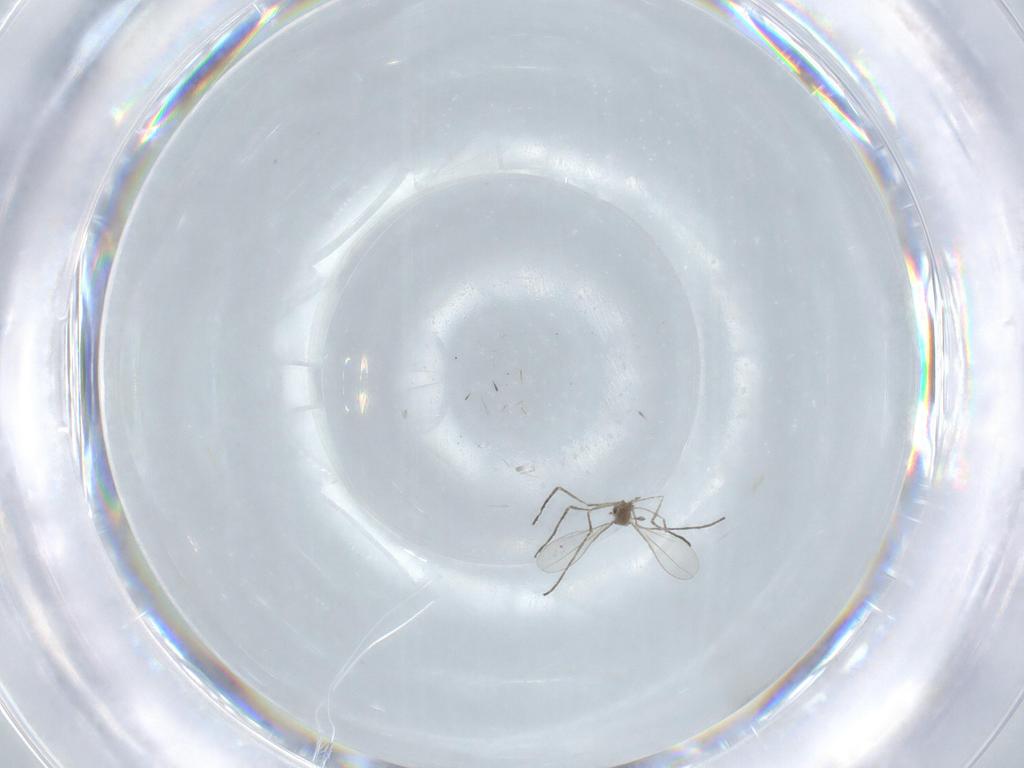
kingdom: Animalia
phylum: Arthropoda
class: Insecta
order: Diptera
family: Cecidomyiidae
